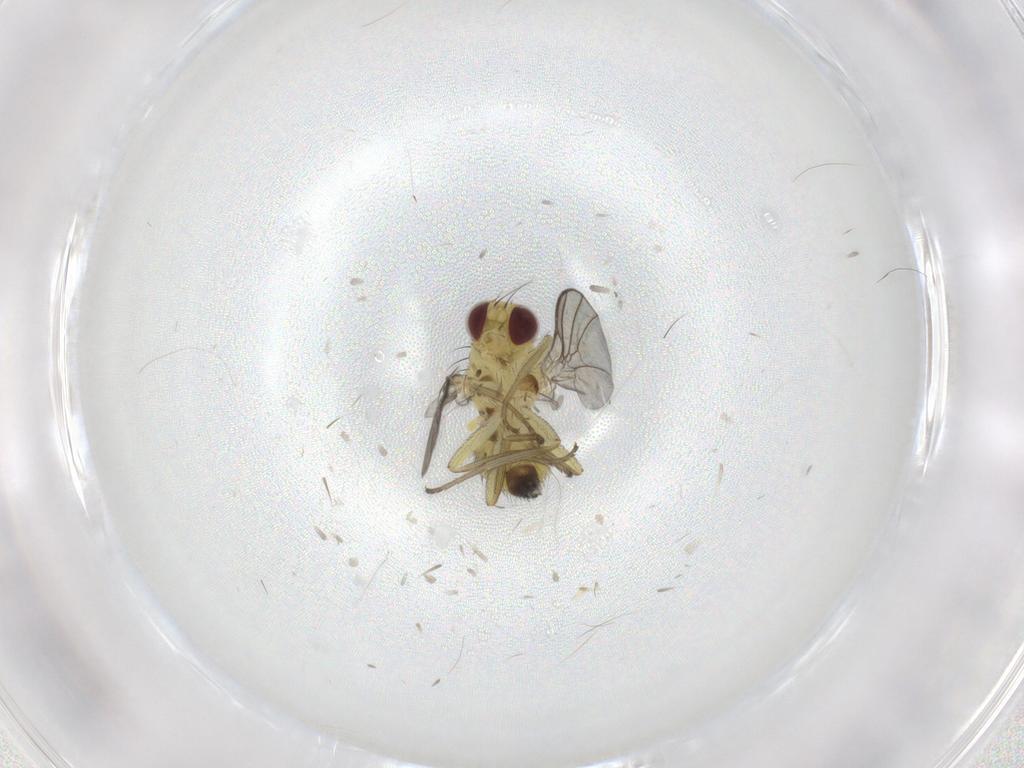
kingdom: Animalia
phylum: Arthropoda
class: Insecta
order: Diptera
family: Agromyzidae
